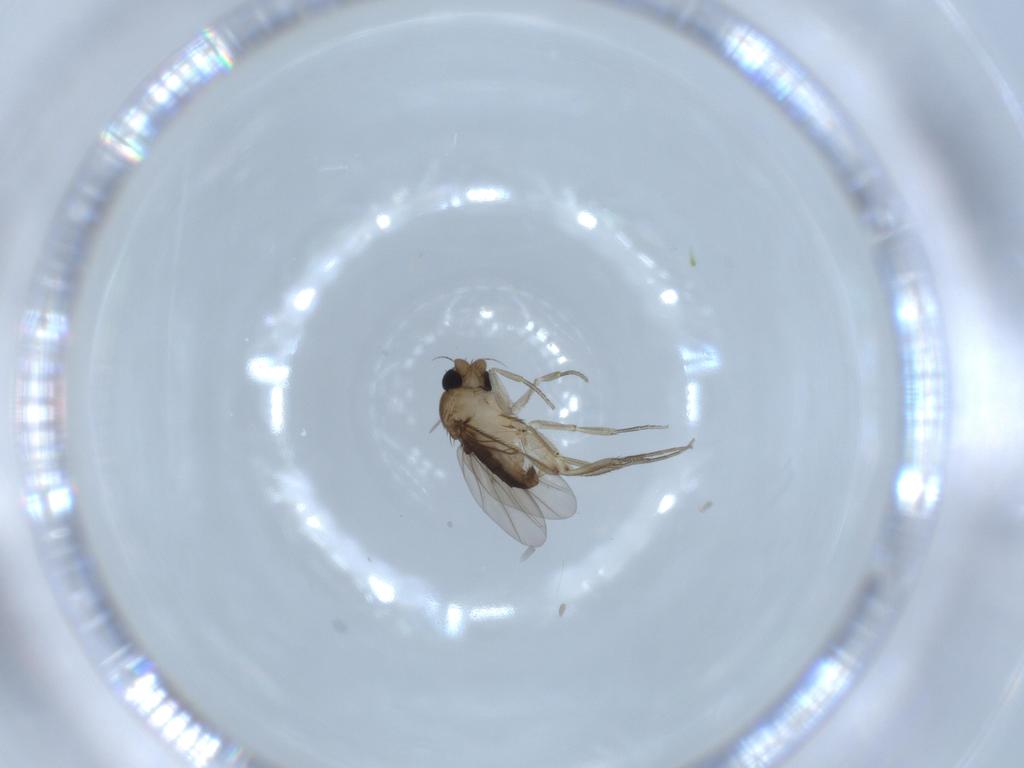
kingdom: Animalia
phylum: Arthropoda
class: Insecta
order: Diptera
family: Phoridae
